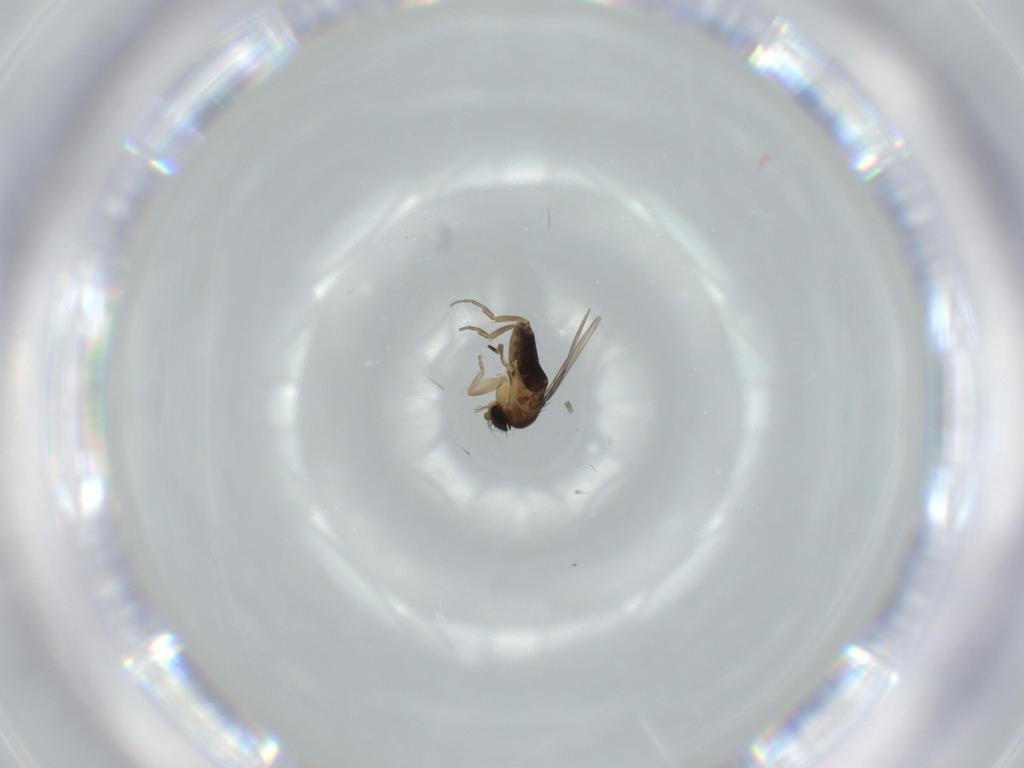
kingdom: Animalia
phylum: Arthropoda
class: Insecta
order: Diptera
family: Phoridae
